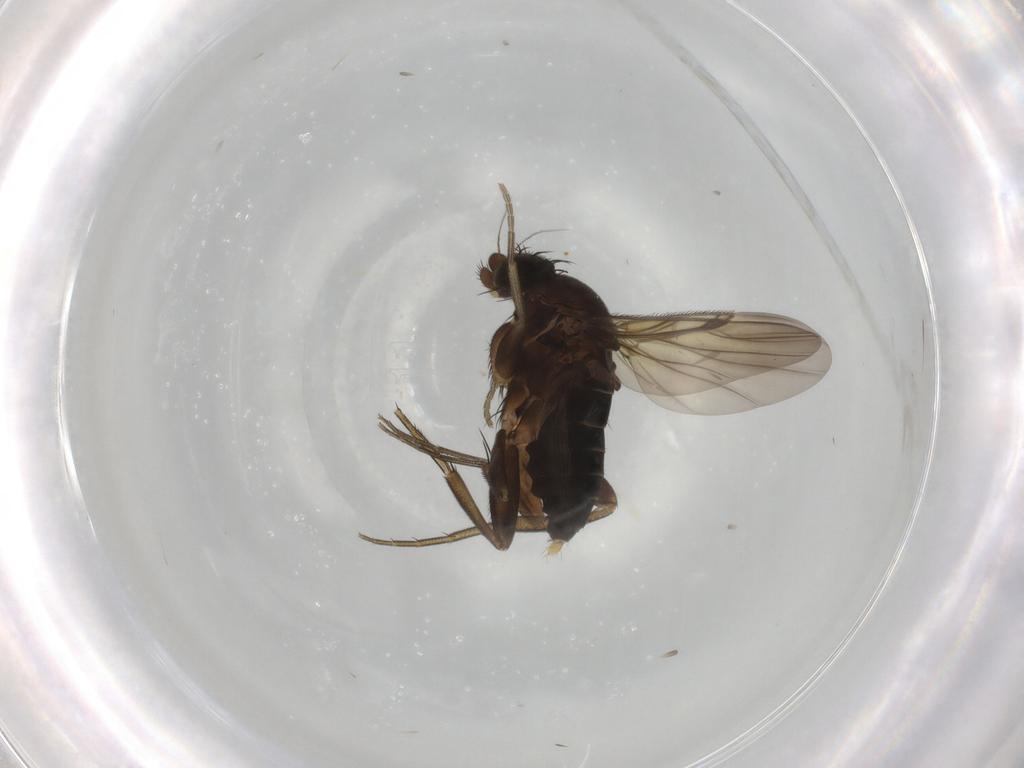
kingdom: Animalia
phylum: Arthropoda
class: Insecta
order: Diptera
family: Phoridae
